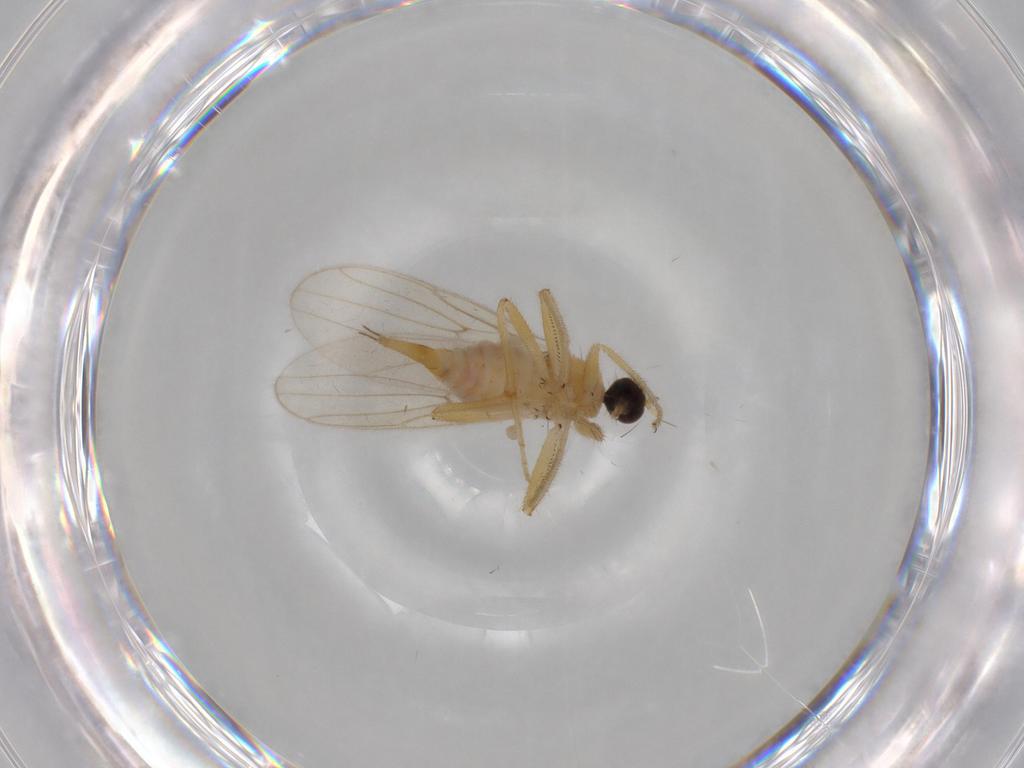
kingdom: Animalia
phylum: Arthropoda
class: Insecta
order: Diptera
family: Hybotidae
